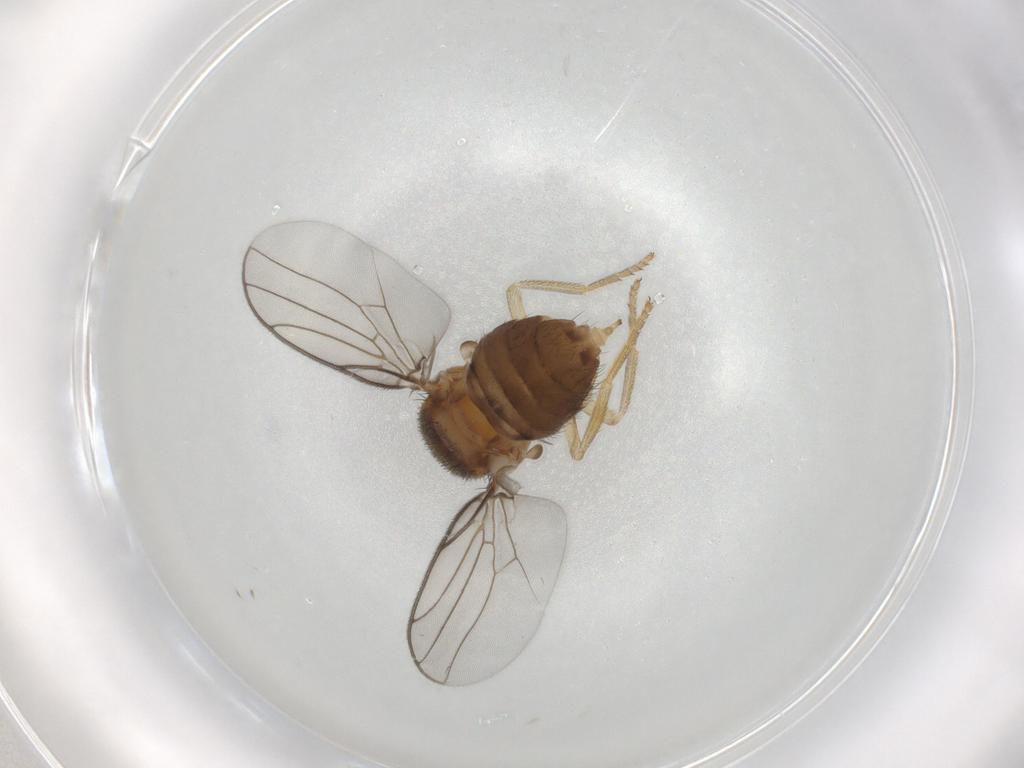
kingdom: Animalia
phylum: Arthropoda
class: Insecta
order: Diptera
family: Chloropidae
